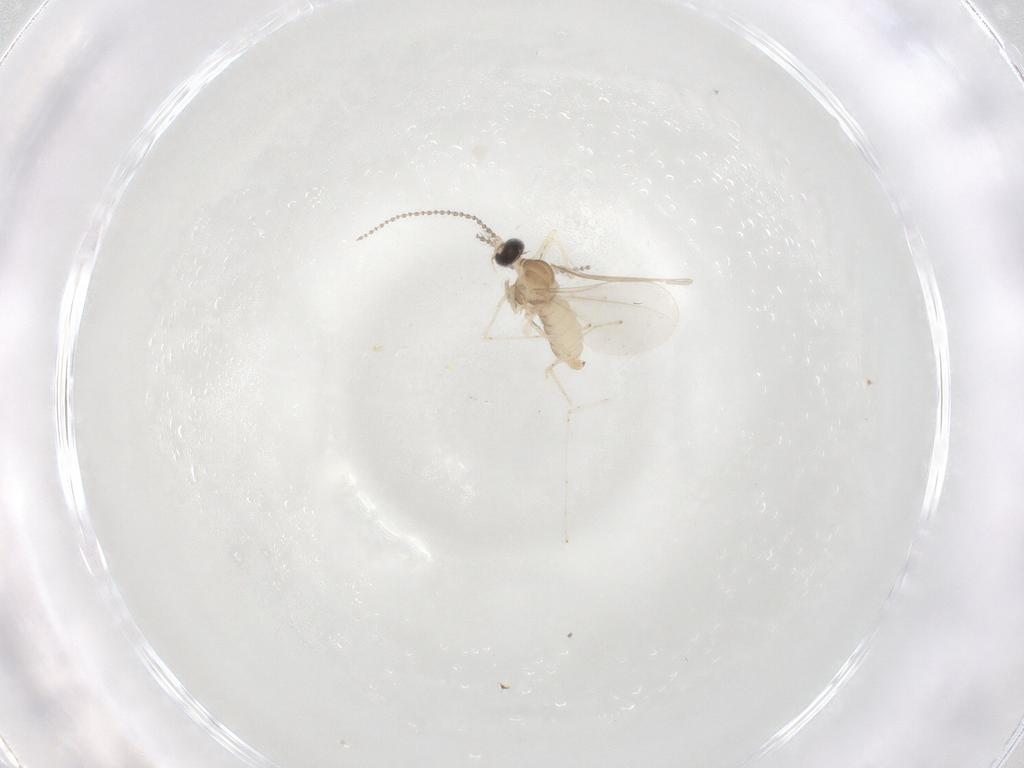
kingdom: Animalia
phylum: Arthropoda
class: Insecta
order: Diptera
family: Cecidomyiidae
